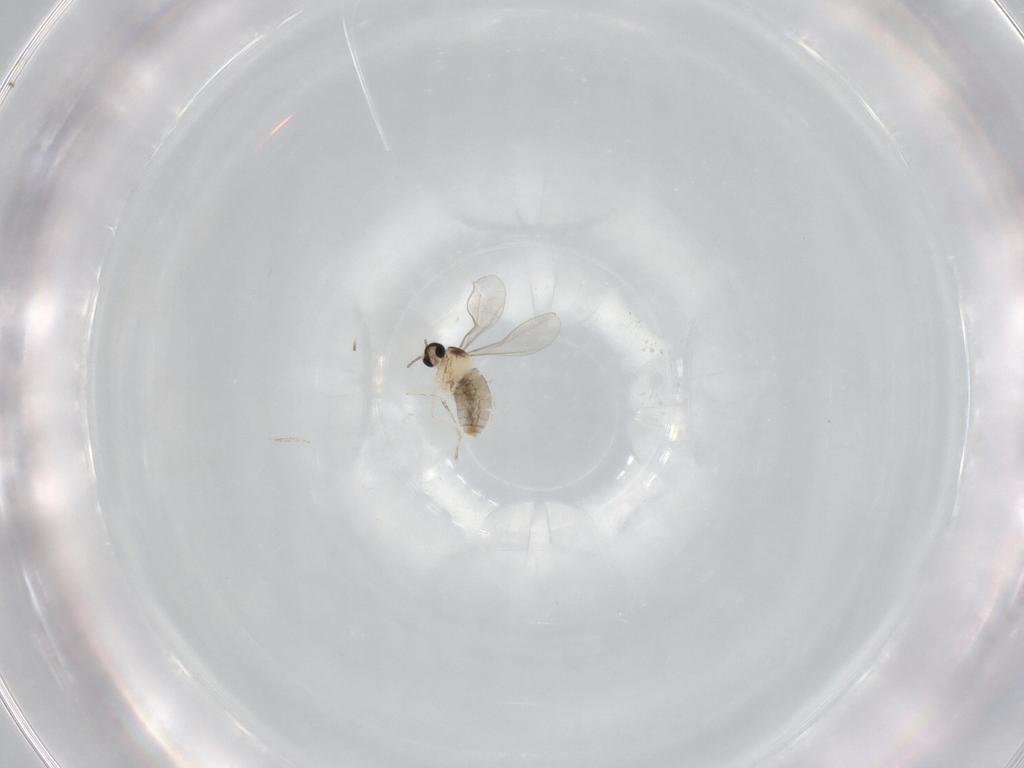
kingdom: Animalia
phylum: Arthropoda
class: Insecta
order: Diptera
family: Cecidomyiidae
